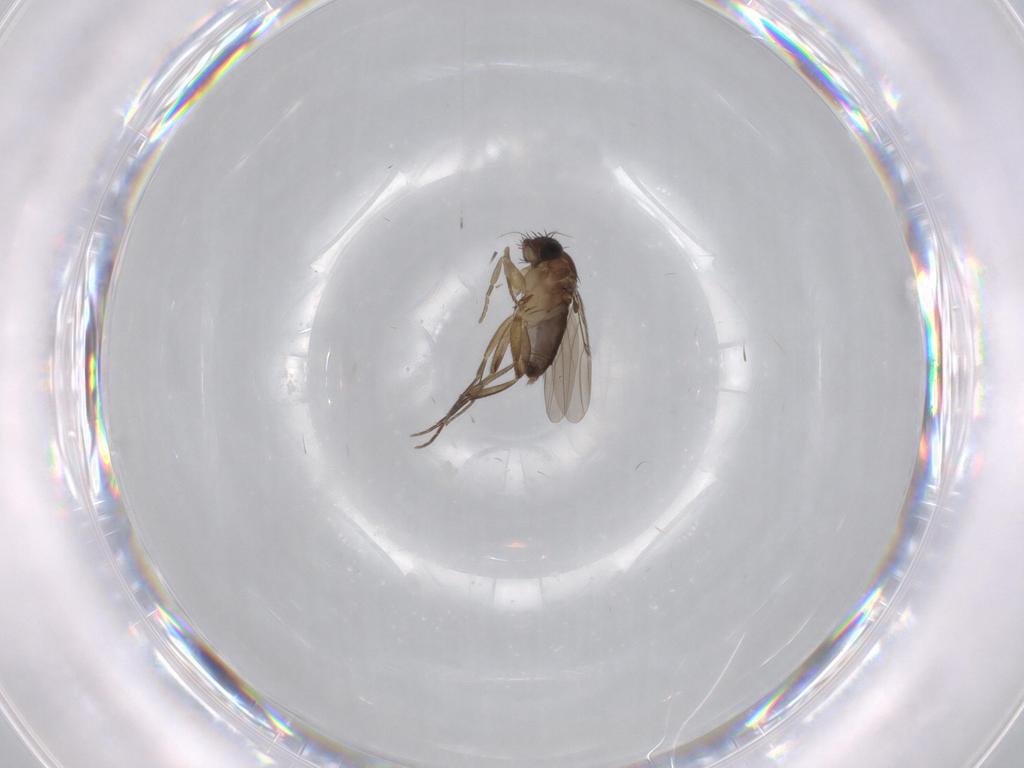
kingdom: Animalia
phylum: Arthropoda
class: Insecta
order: Diptera
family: Phoridae
